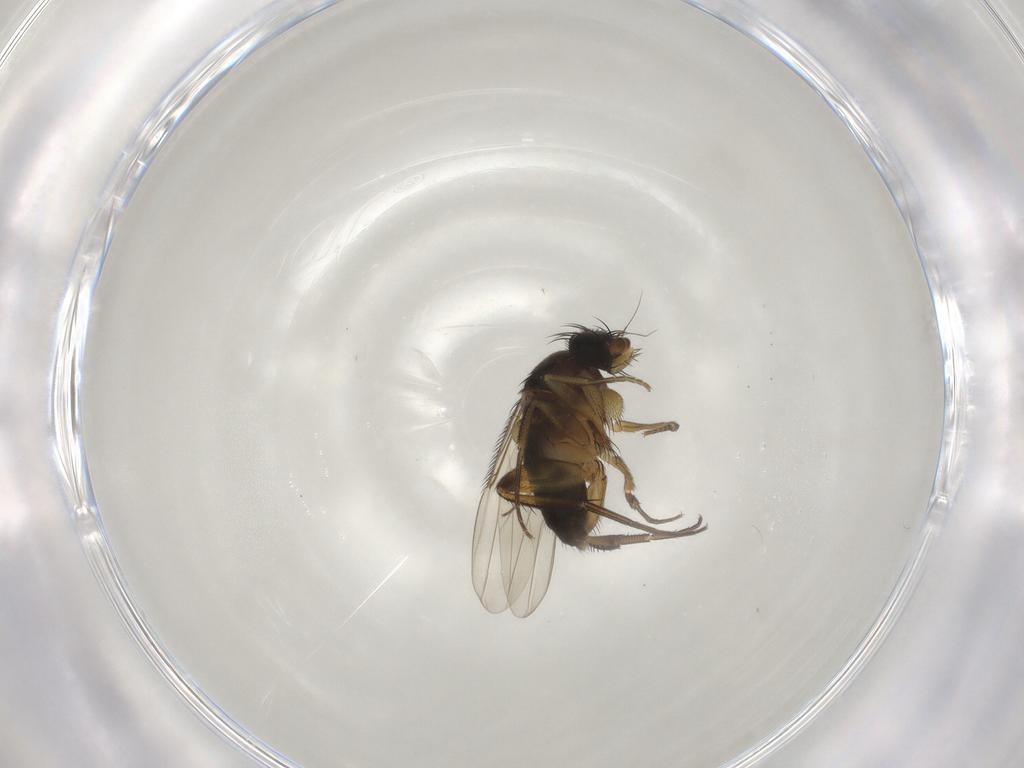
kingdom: Animalia
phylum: Arthropoda
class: Insecta
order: Diptera
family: Phoridae
